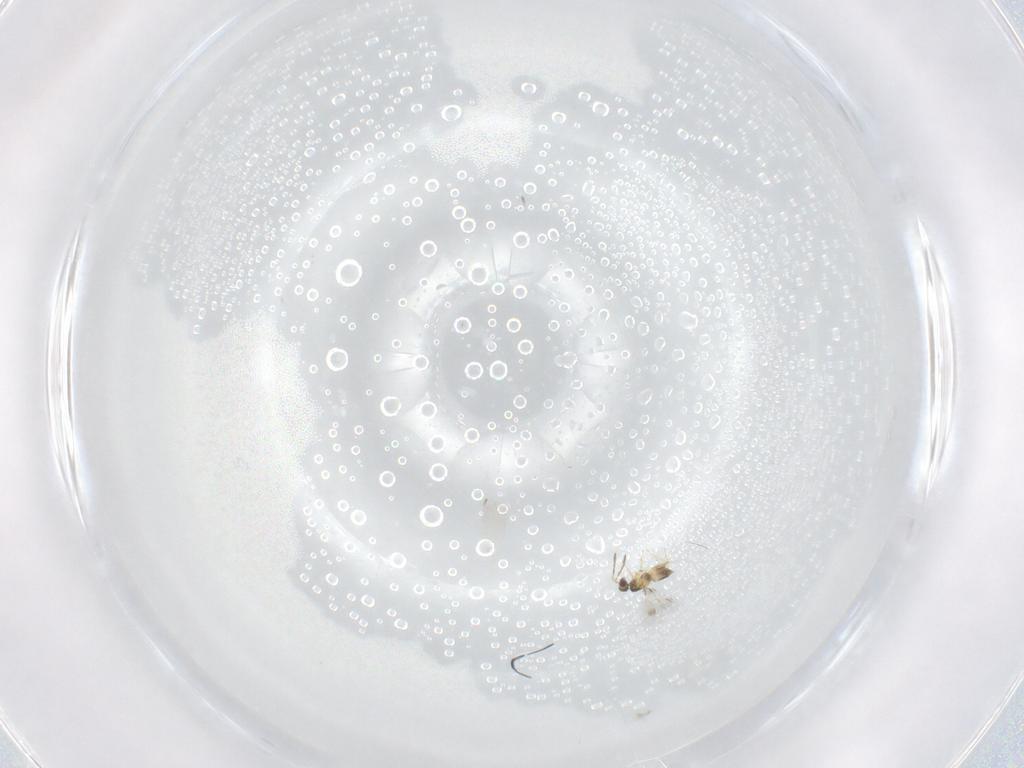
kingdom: Animalia
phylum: Arthropoda
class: Insecta
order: Hymenoptera
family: Mymaridae
